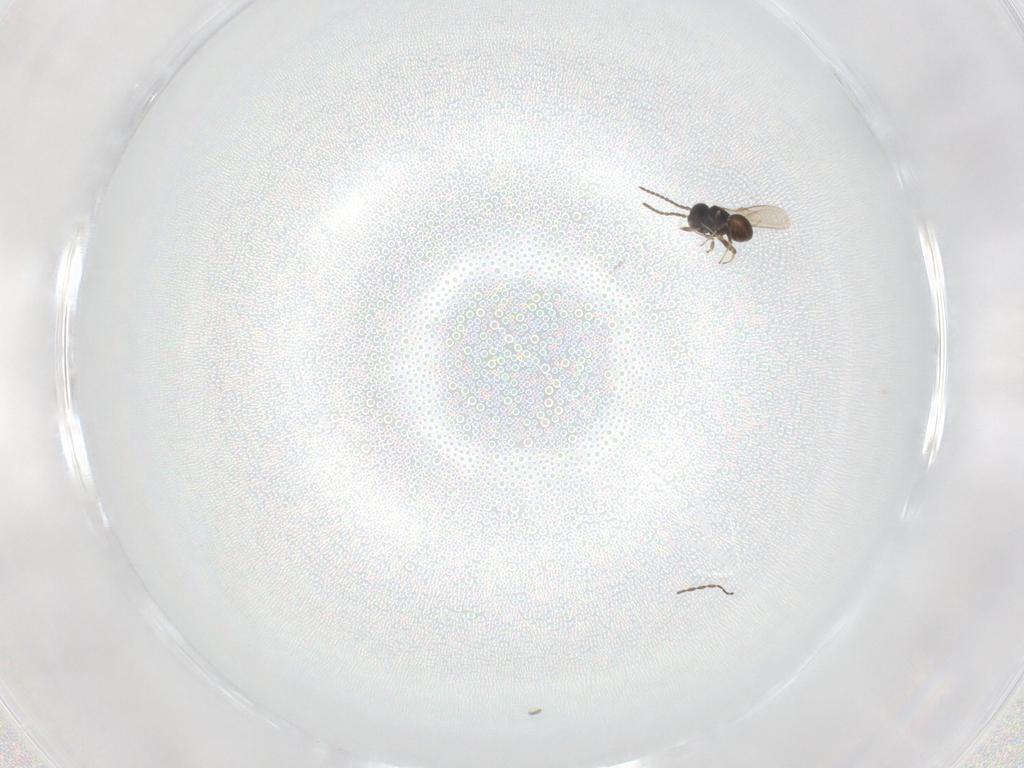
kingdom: Animalia
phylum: Arthropoda
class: Insecta
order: Hymenoptera
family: Scelionidae
